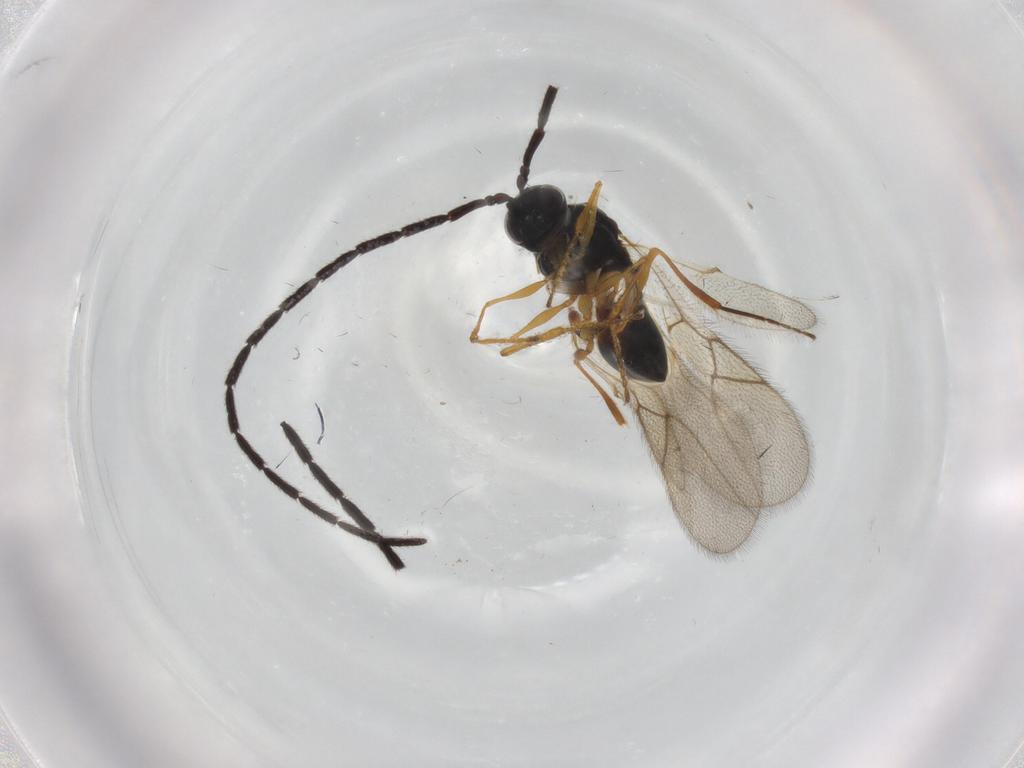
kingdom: Animalia
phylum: Arthropoda
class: Insecta
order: Hymenoptera
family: Figitidae
